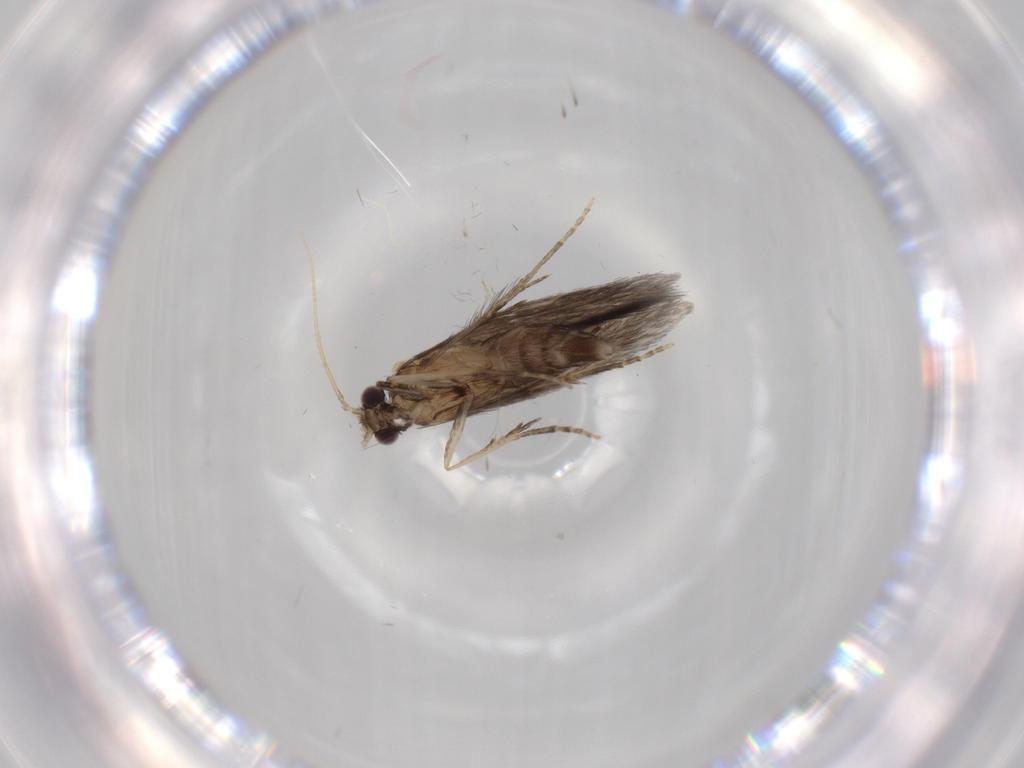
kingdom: Animalia
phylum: Arthropoda
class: Insecta
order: Trichoptera
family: Hydroptilidae
